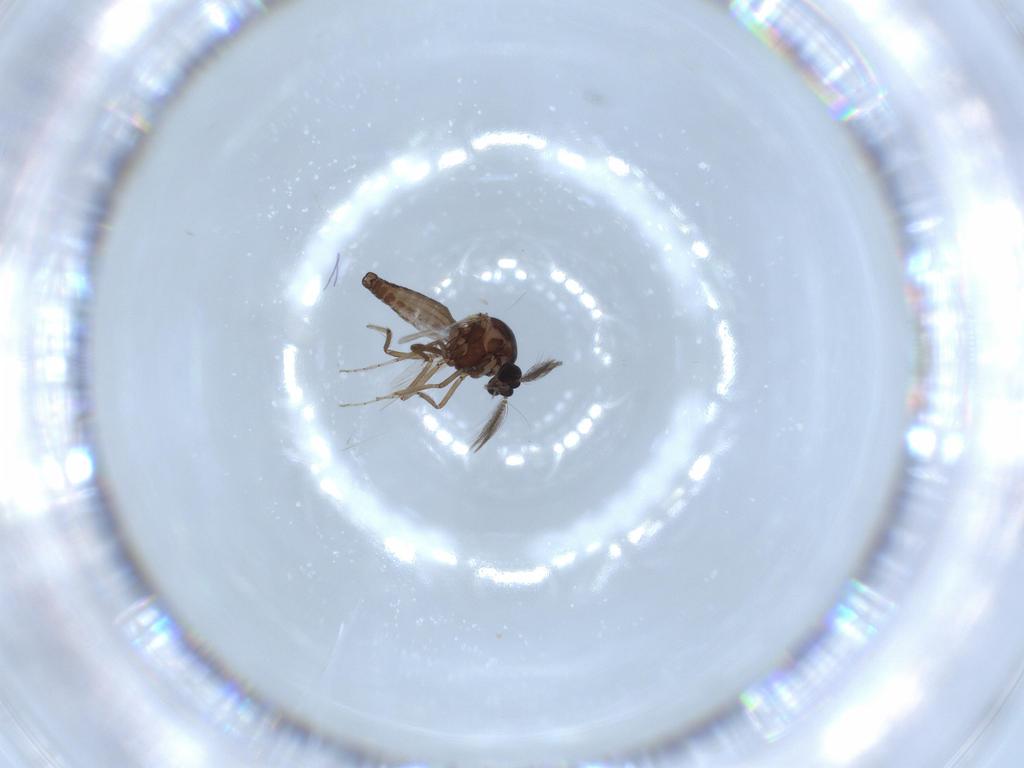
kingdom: Animalia
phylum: Arthropoda
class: Insecta
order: Diptera
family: Ceratopogonidae
